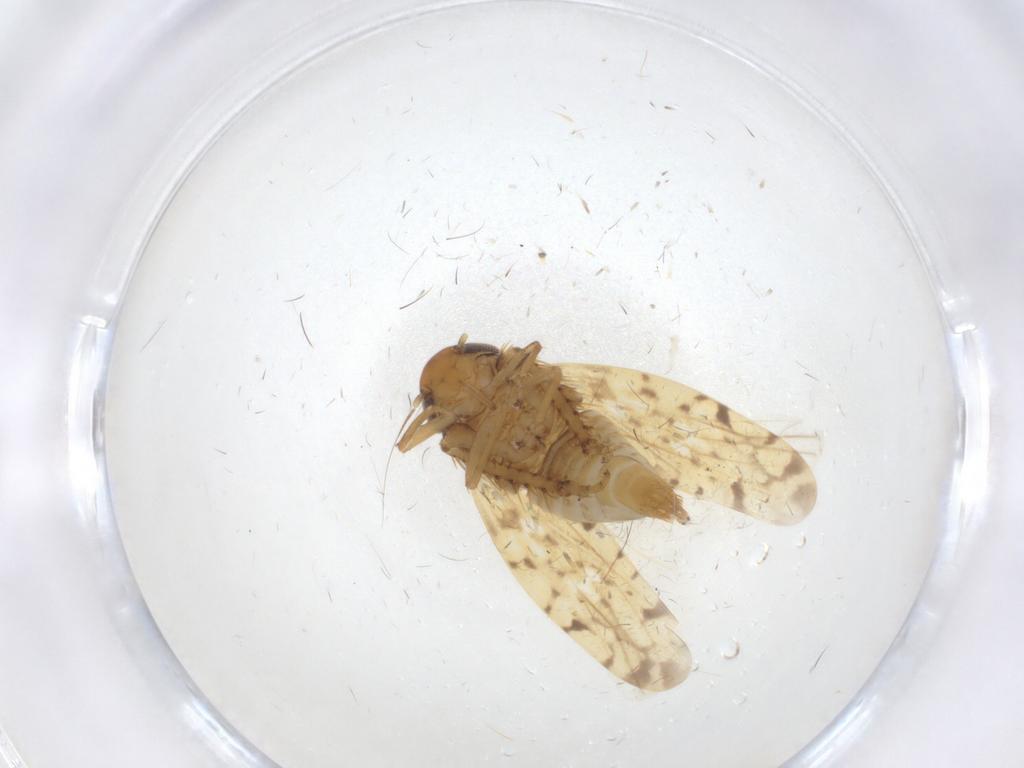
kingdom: Animalia
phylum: Arthropoda
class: Insecta
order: Hemiptera
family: Cicadellidae
